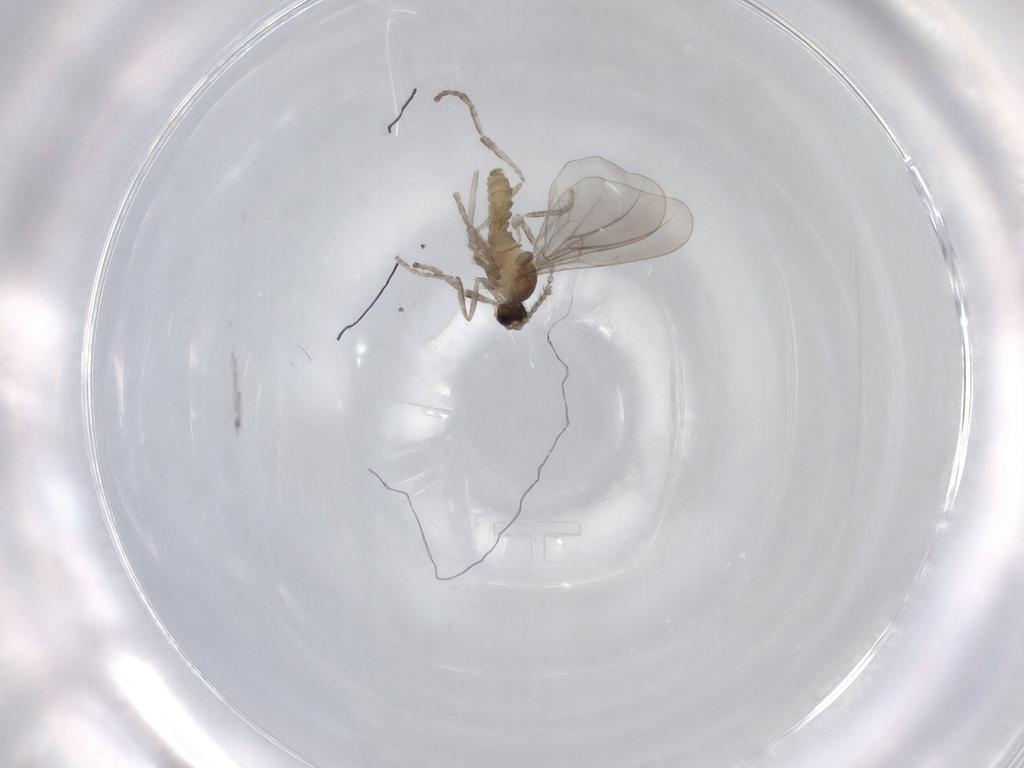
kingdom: Animalia
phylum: Arthropoda
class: Insecta
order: Diptera
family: Cecidomyiidae
